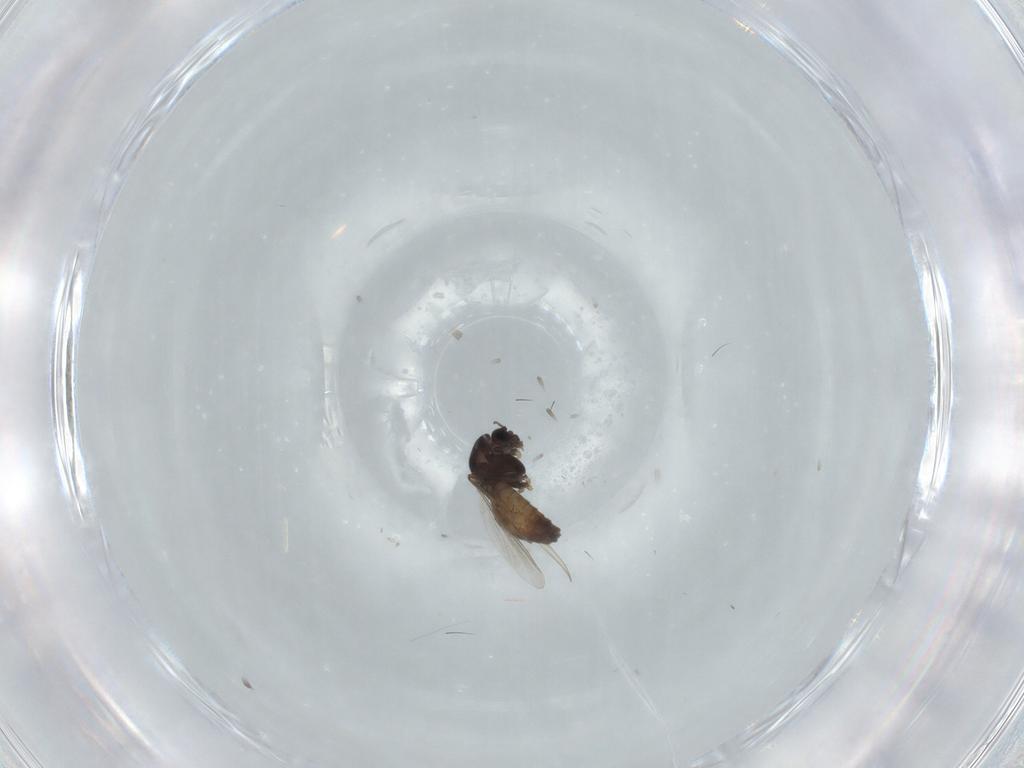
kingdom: Animalia
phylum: Arthropoda
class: Insecta
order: Diptera
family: Chironomidae
